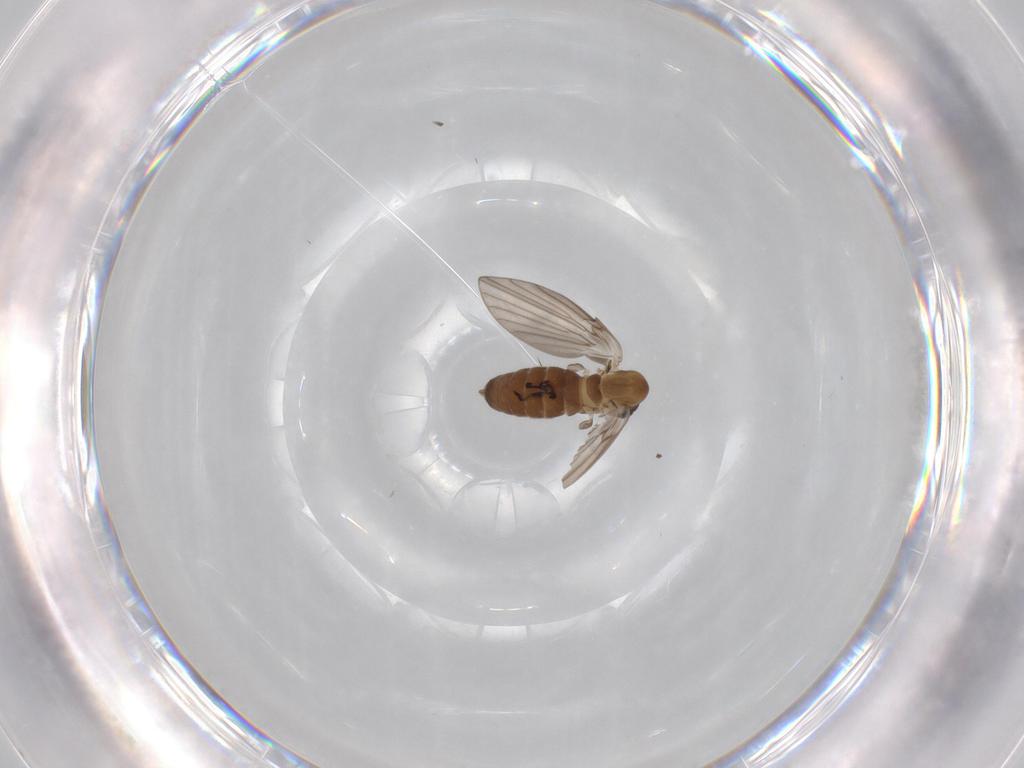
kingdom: Animalia
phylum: Arthropoda
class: Insecta
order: Diptera
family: Cecidomyiidae
